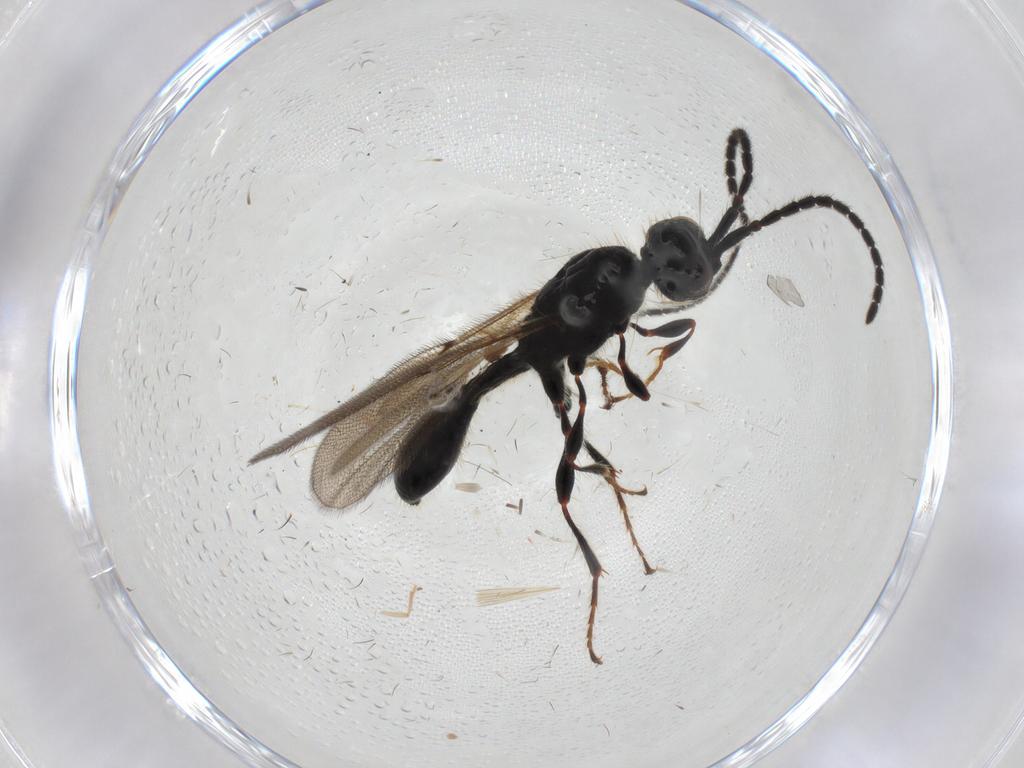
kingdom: Animalia
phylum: Arthropoda
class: Insecta
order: Hymenoptera
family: Diapriidae
